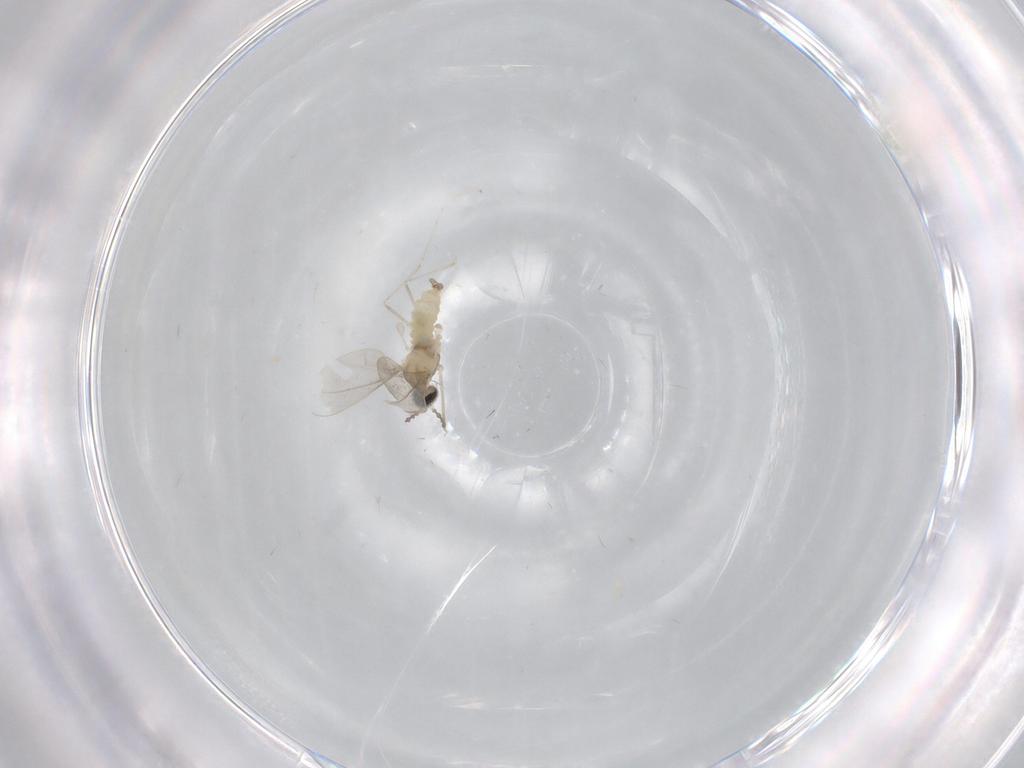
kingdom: Animalia
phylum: Arthropoda
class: Insecta
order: Diptera
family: Cecidomyiidae
